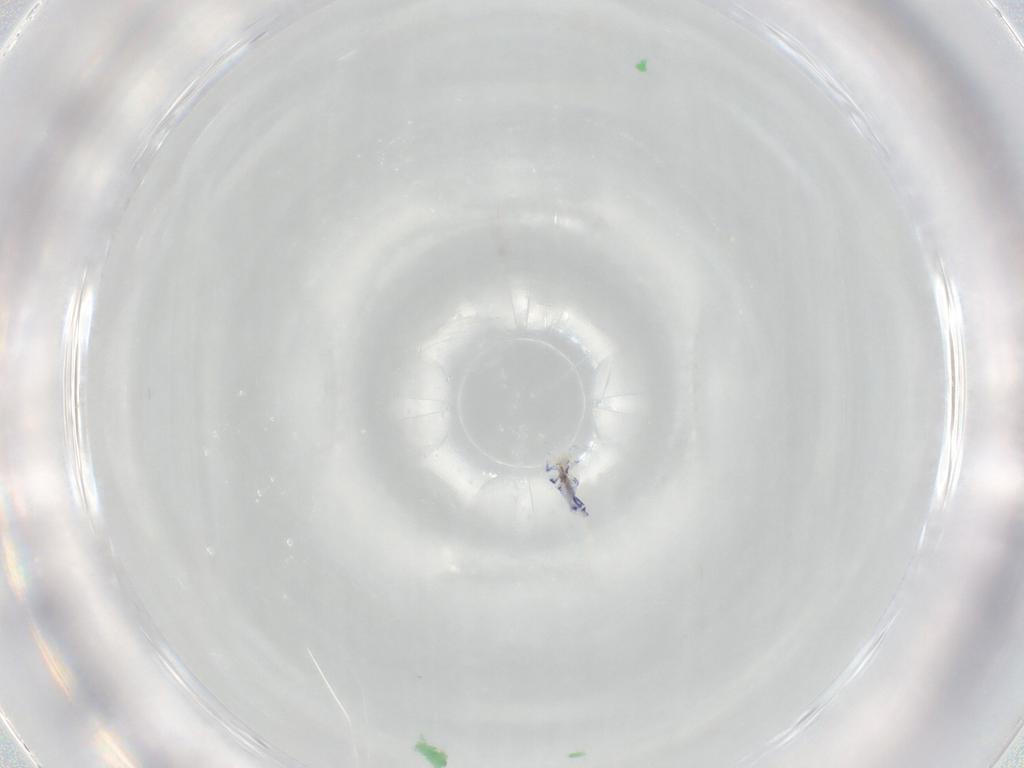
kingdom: Animalia
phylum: Arthropoda
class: Collembola
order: Entomobryomorpha
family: Entomobryidae
